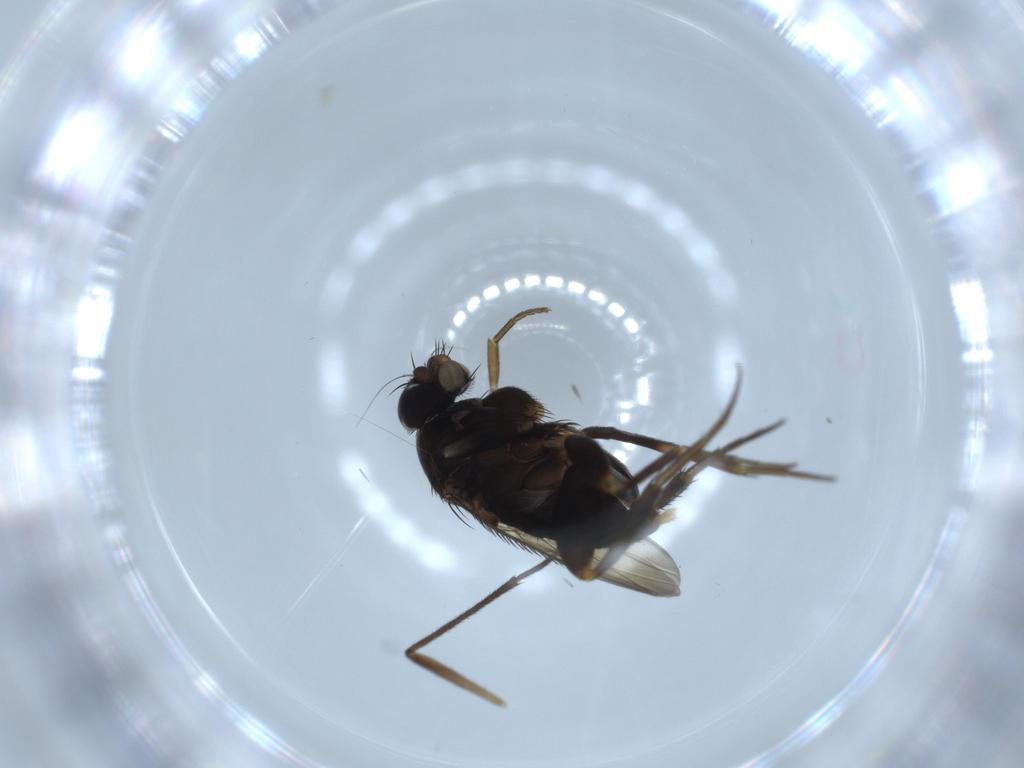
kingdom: Animalia
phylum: Arthropoda
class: Insecta
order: Diptera
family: Phoridae
